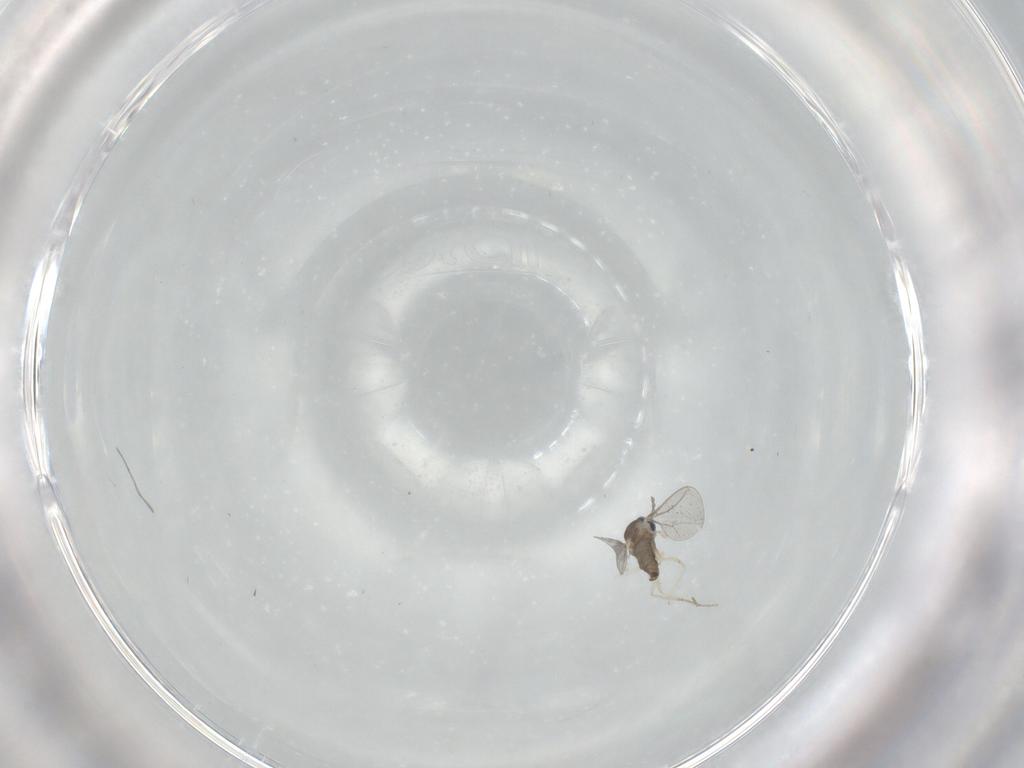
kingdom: Animalia
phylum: Arthropoda
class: Insecta
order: Diptera
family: Cecidomyiidae
